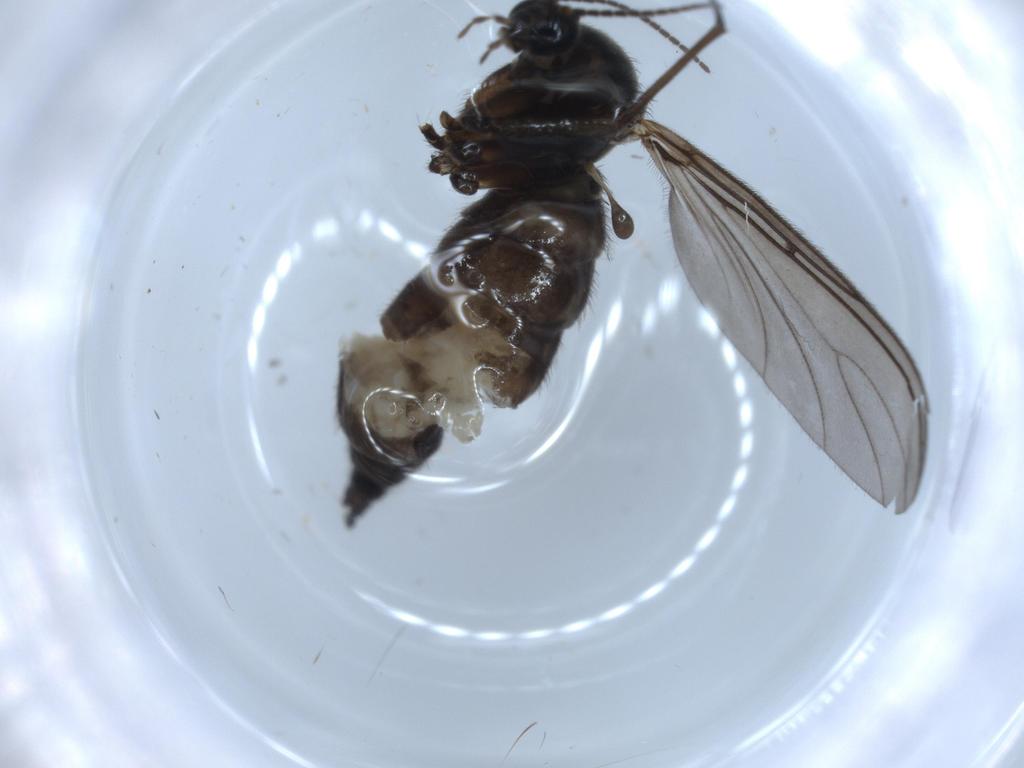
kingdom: Animalia
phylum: Arthropoda
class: Insecta
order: Diptera
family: Sciaridae
